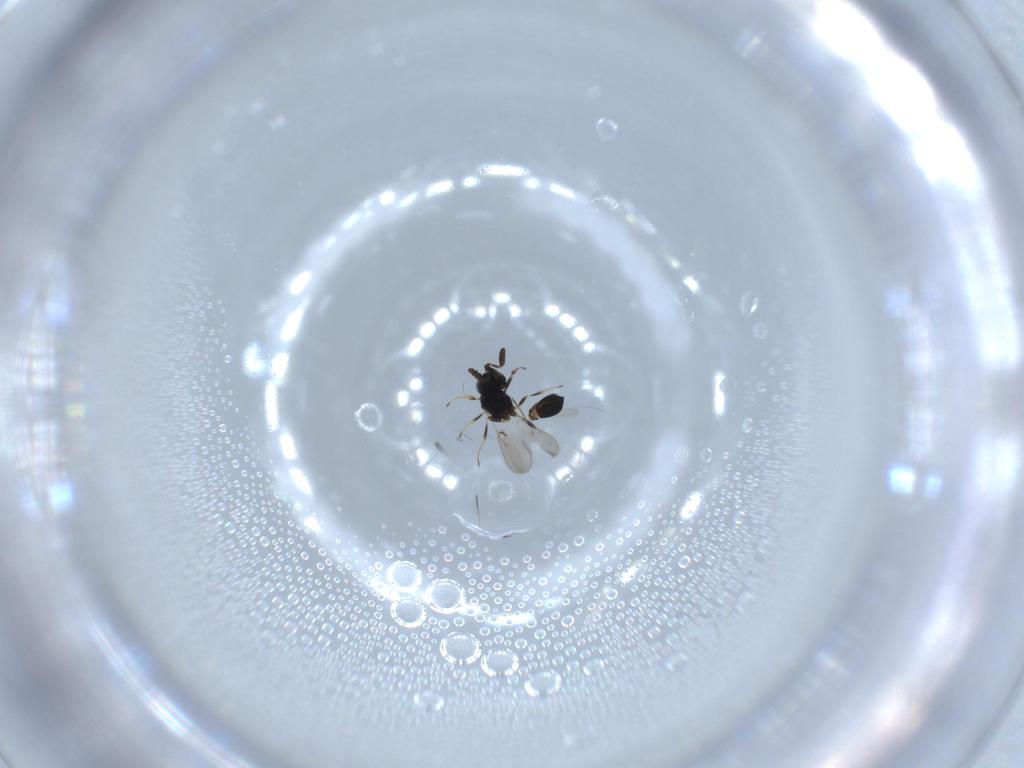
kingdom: Animalia
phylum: Arthropoda
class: Insecta
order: Hymenoptera
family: Scelionidae
